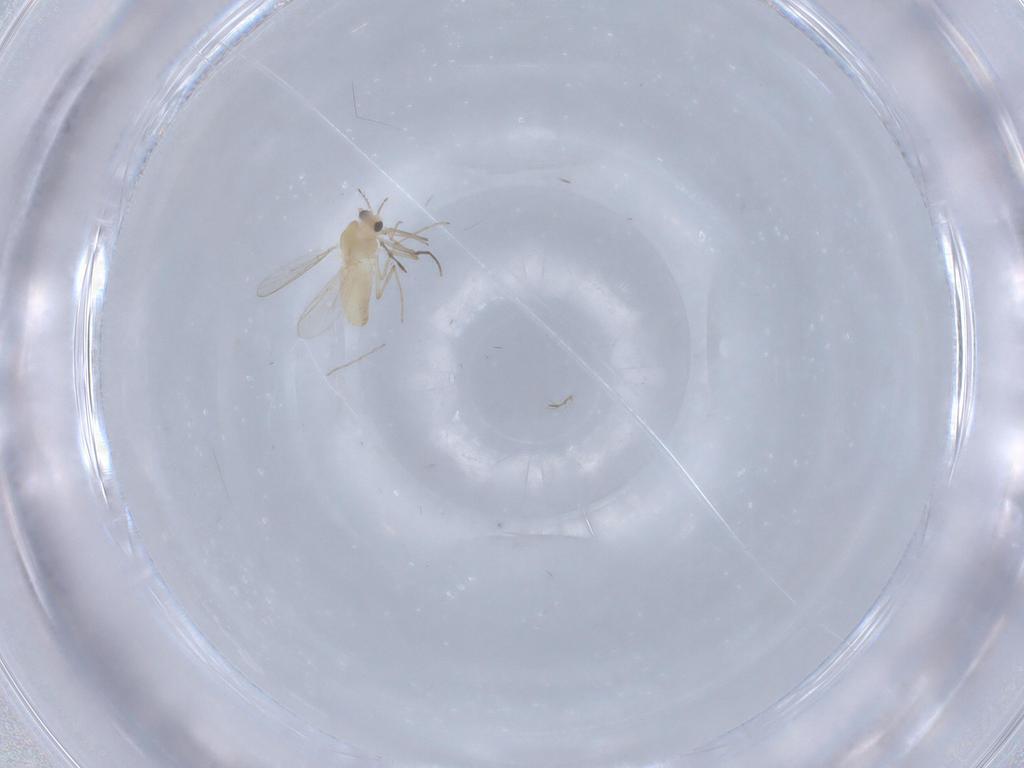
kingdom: Animalia
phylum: Arthropoda
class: Insecta
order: Diptera
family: Chironomidae
